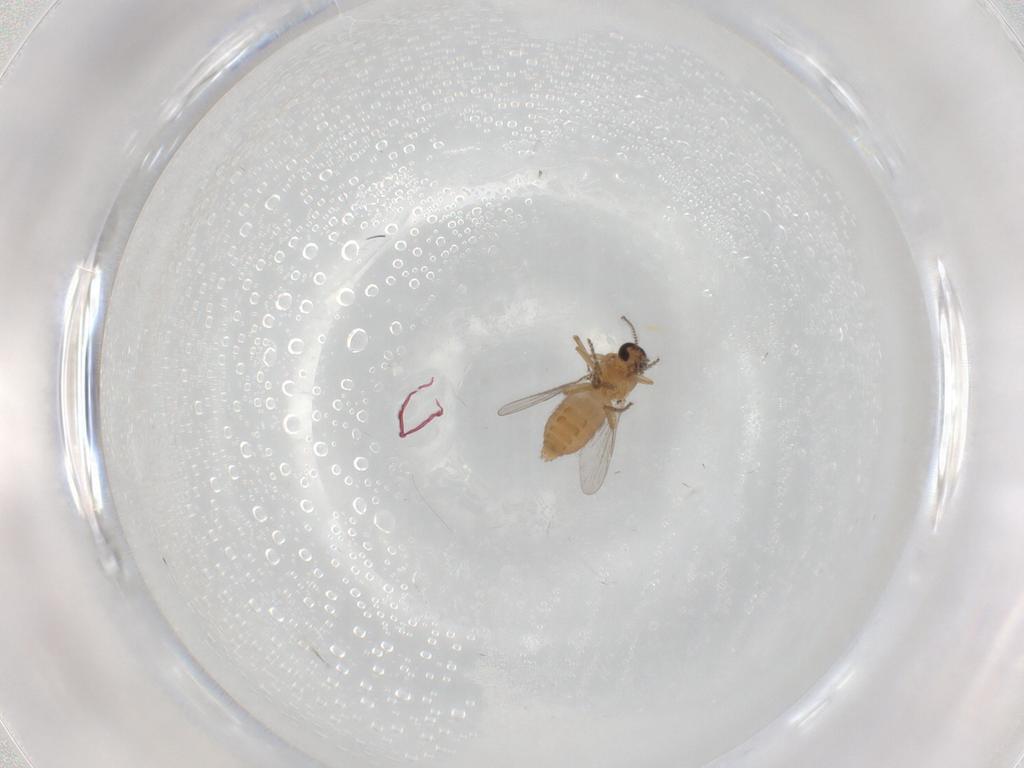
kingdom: Animalia
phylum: Arthropoda
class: Insecta
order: Diptera
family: Ceratopogonidae
